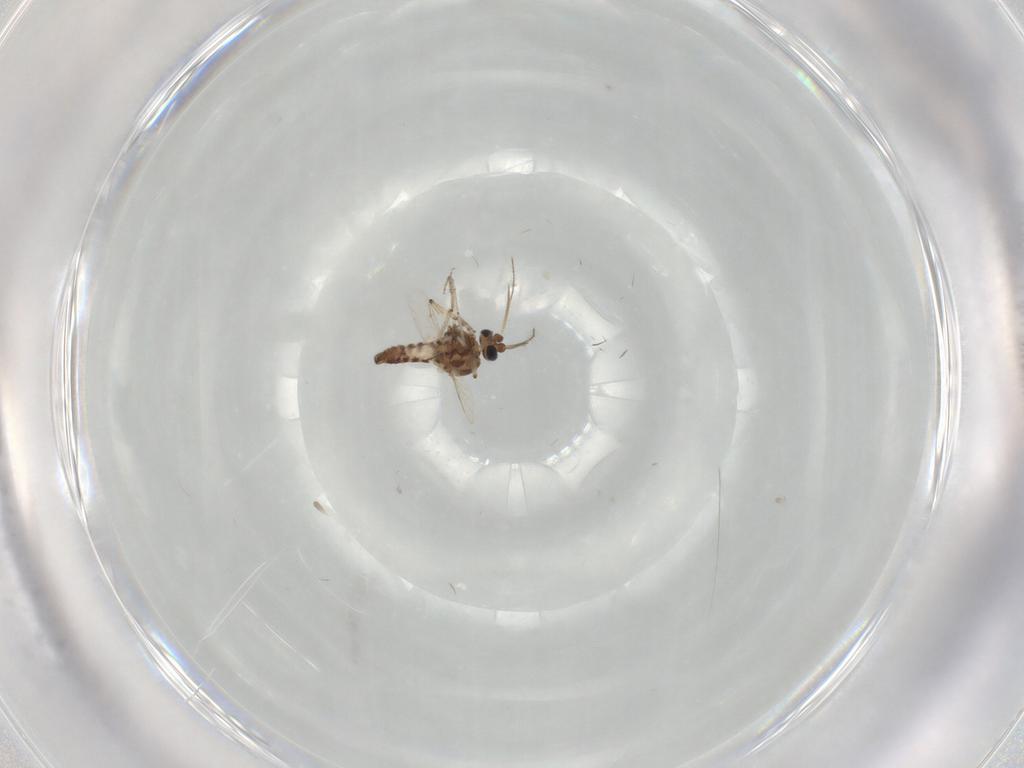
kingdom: Animalia
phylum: Arthropoda
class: Insecta
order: Diptera
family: Ceratopogonidae
